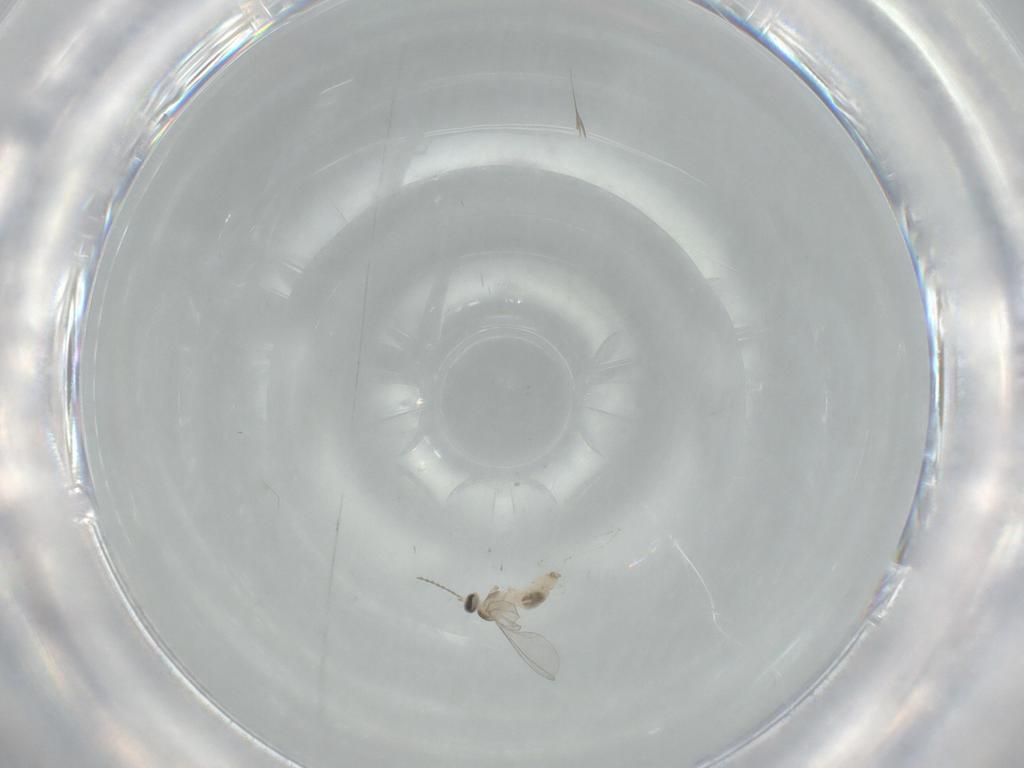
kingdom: Animalia
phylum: Arthropoda
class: Insecta
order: Diptera
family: Cecidomyiidae
